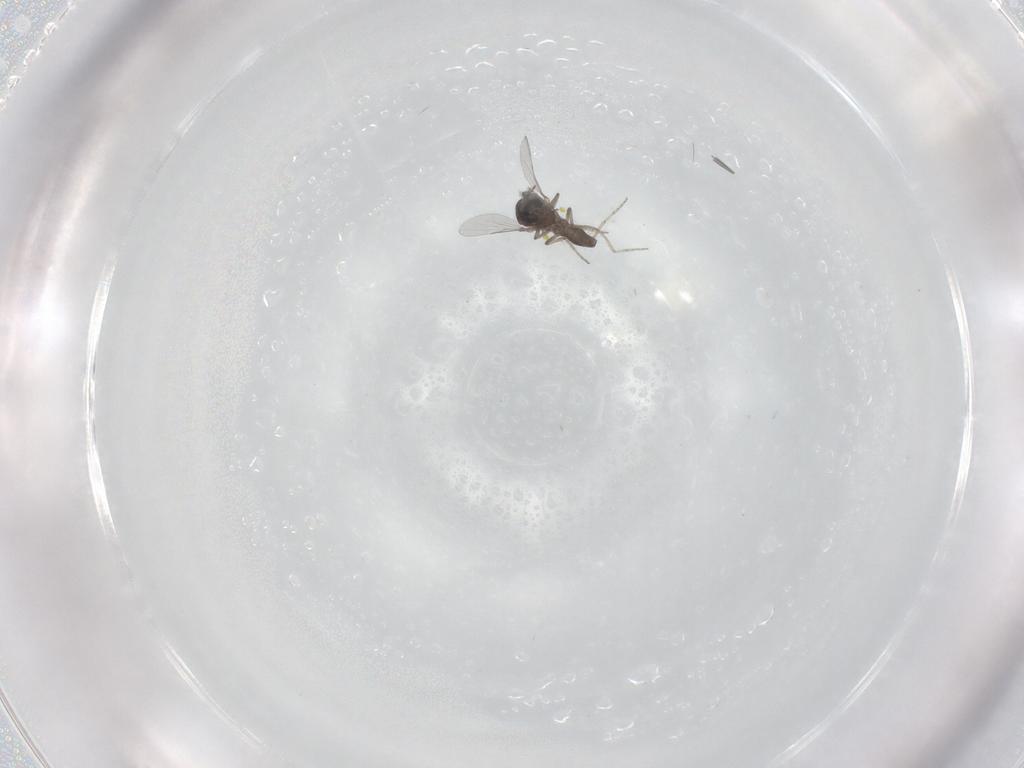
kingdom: Animalia
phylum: Arthropoda
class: Insecta
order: Diptera
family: Ceratopogonidae
